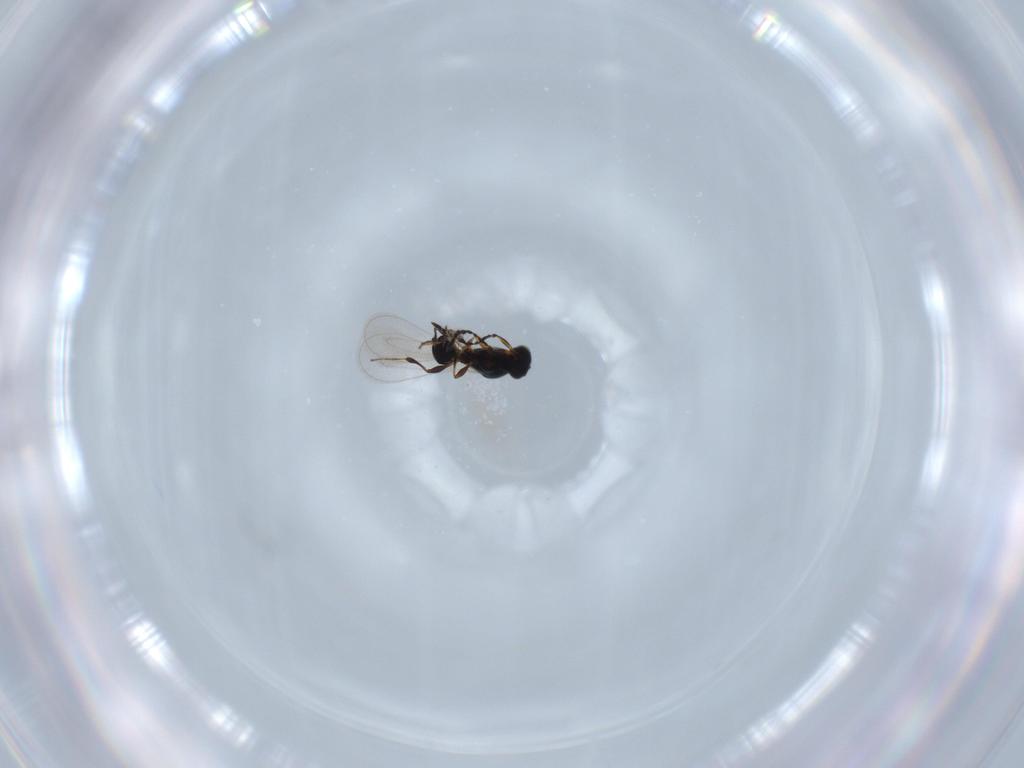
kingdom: Animalia
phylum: Arthropoda
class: Insecta
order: Hymenoptera
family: Platygastridae
